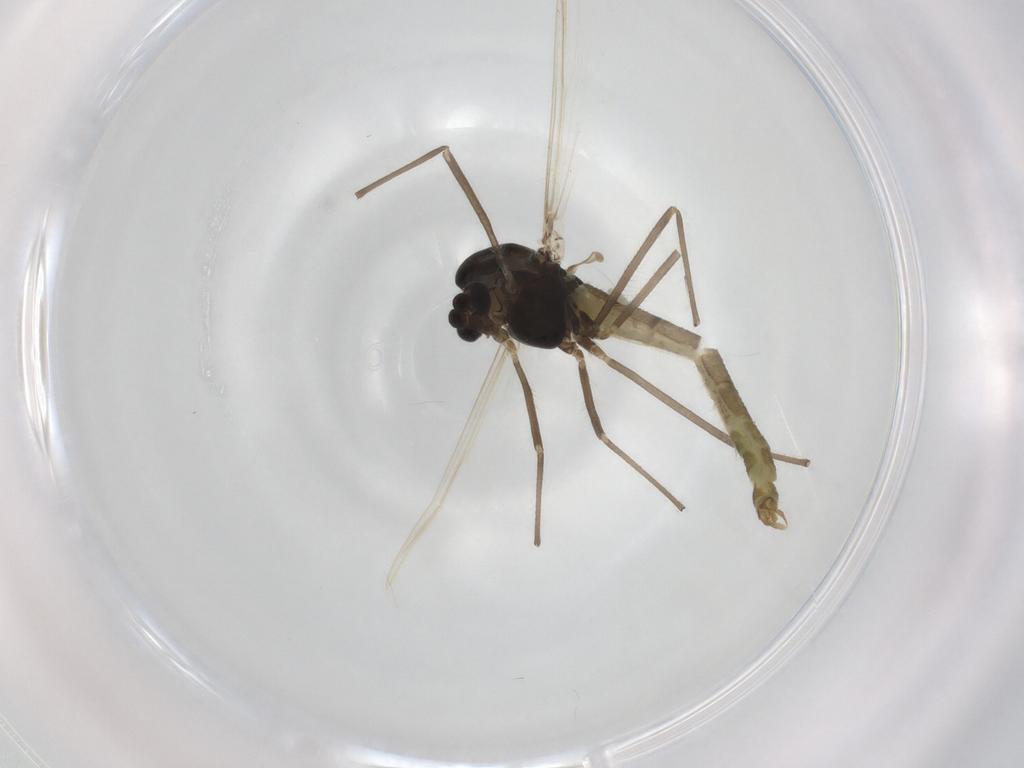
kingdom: Animalia
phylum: Arthropoda
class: Insecta
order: Diptera
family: Chironomidae
